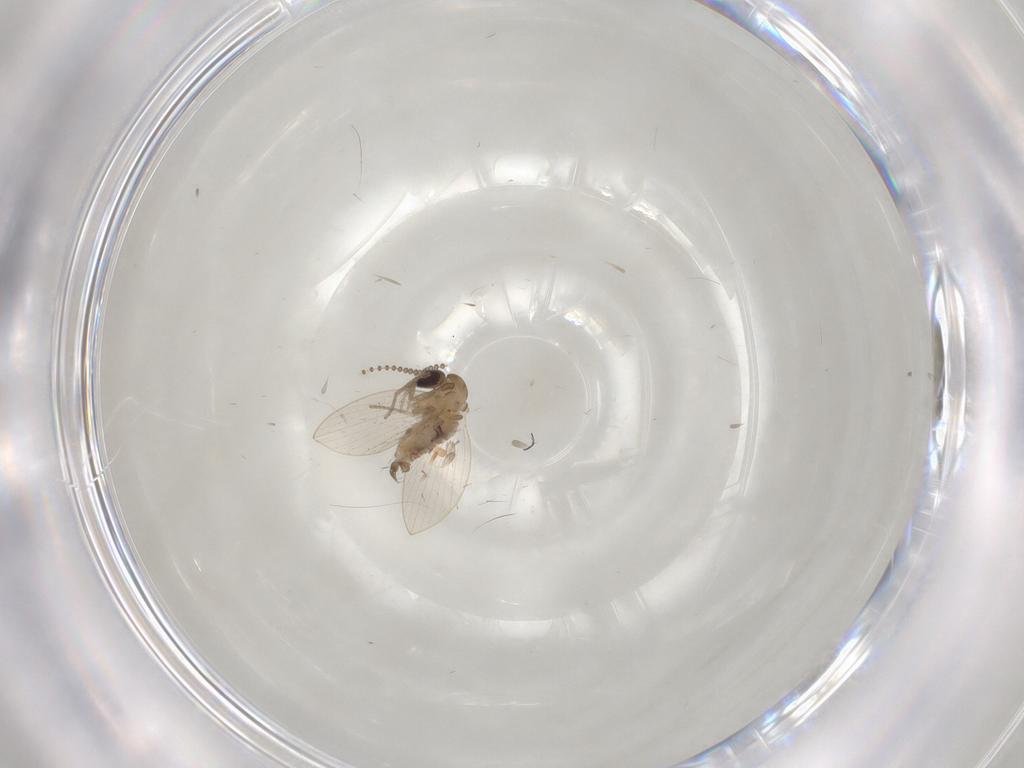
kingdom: Animalia
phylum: Arthropoda
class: Insecta
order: Diptera
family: Psychodidae
